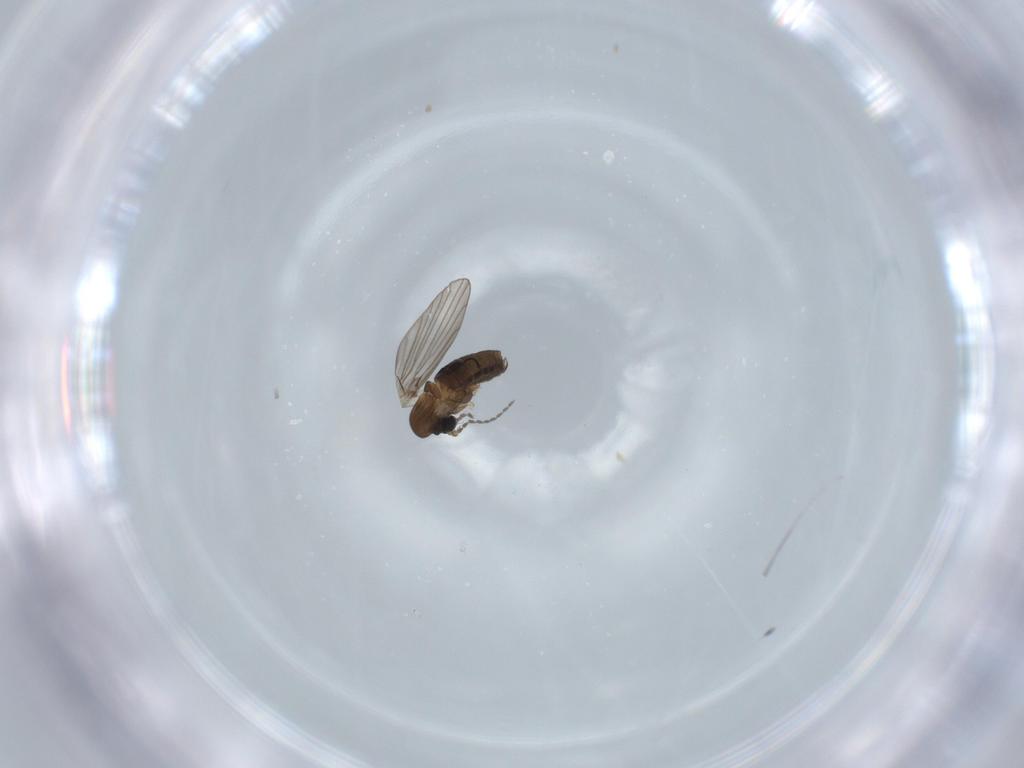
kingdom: Animalia
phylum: Arthropoda
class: Insecta
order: Diptera
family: Psychodidae
